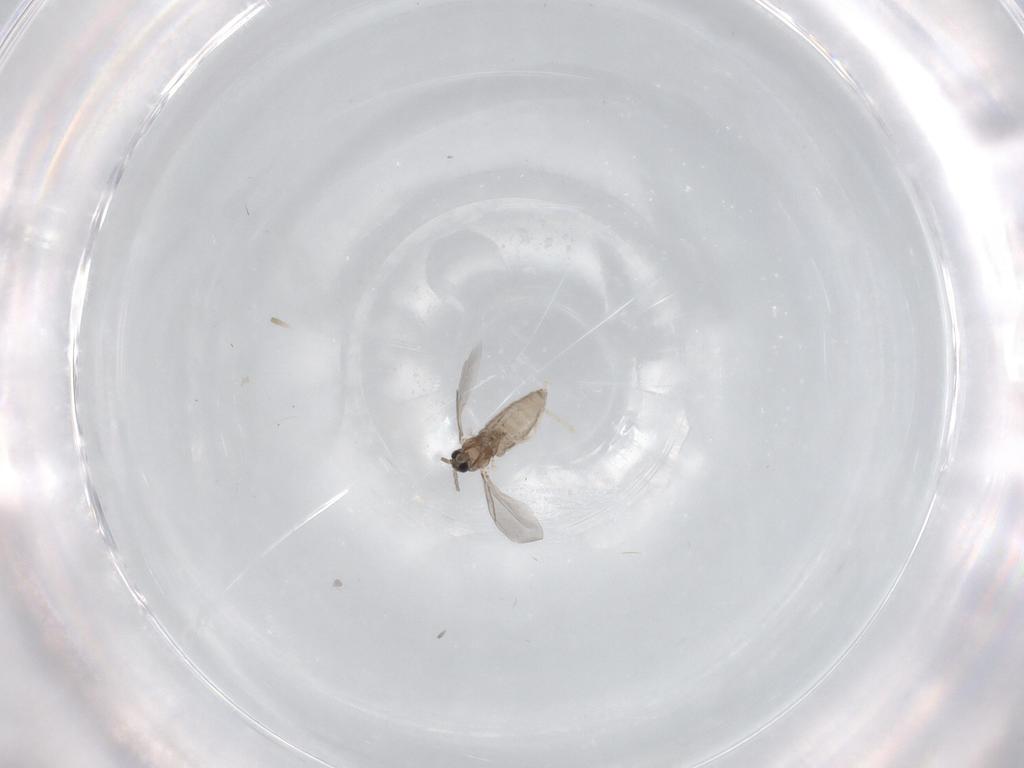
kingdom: Animalia
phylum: Arthropoda
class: Insecta
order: Diptera
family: Cecidomyiidae
